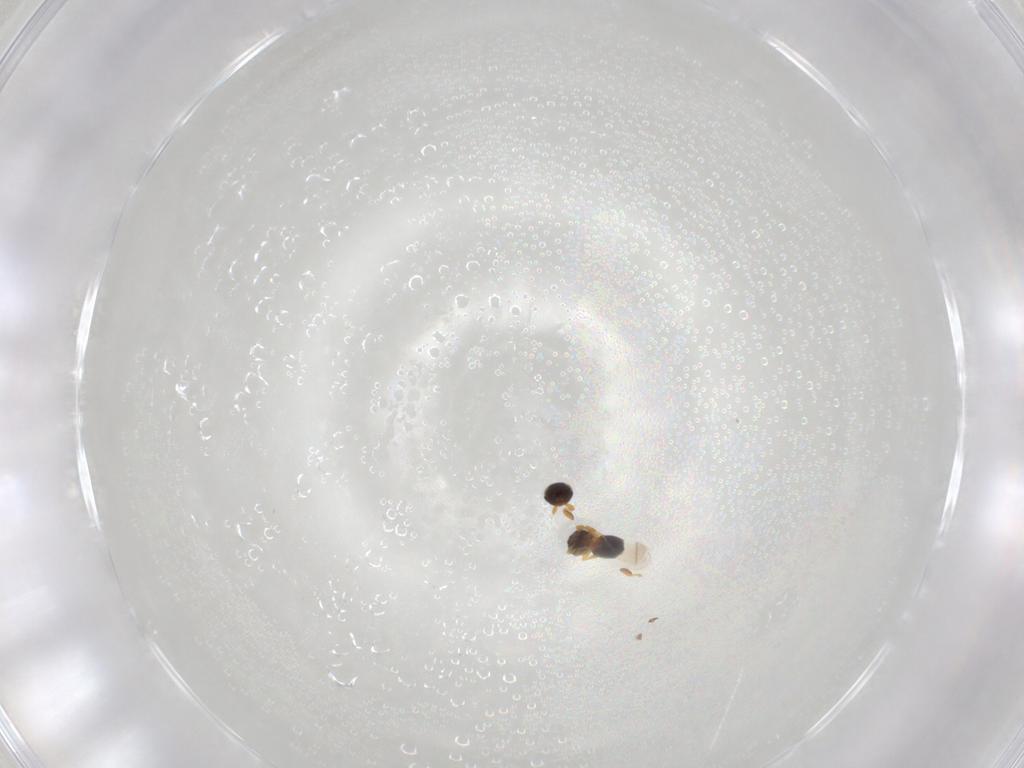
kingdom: Animalia
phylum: Arthropoda
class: Insecta
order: Hymenoptera
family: Platygastridae
